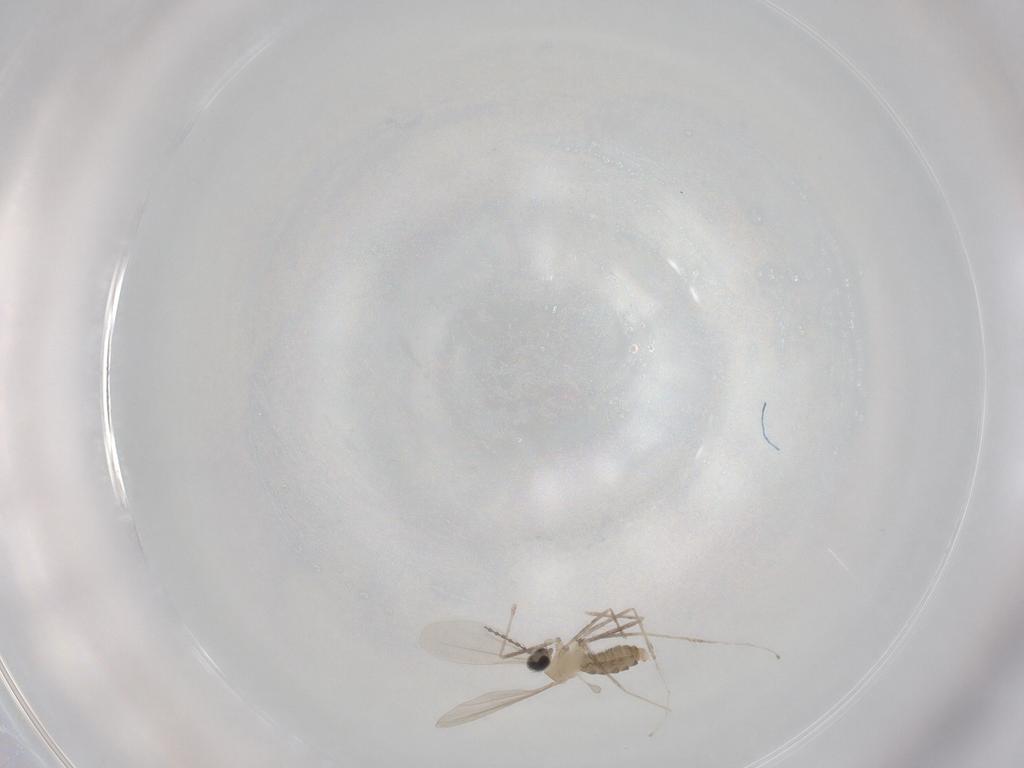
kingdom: Animalia
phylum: Arthropoda
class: Insecta
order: Diptera
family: Cecidomyiidae
